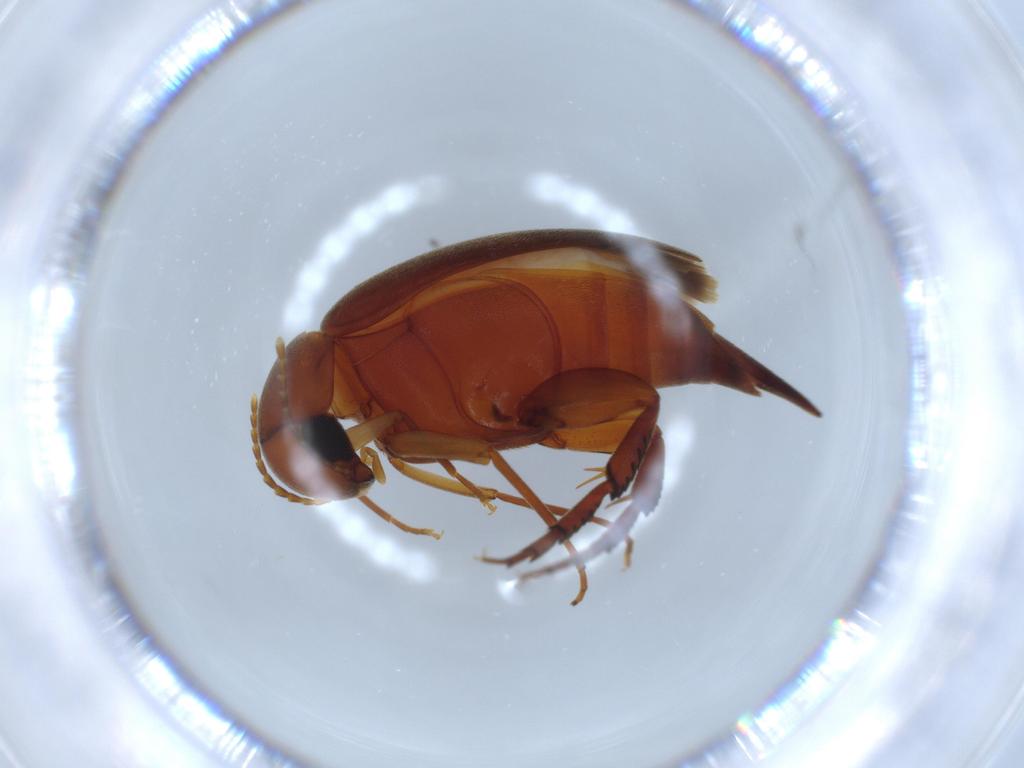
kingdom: Animalia
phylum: Arthropoda
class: Insecta
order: Coleoptera
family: Mordellidae
